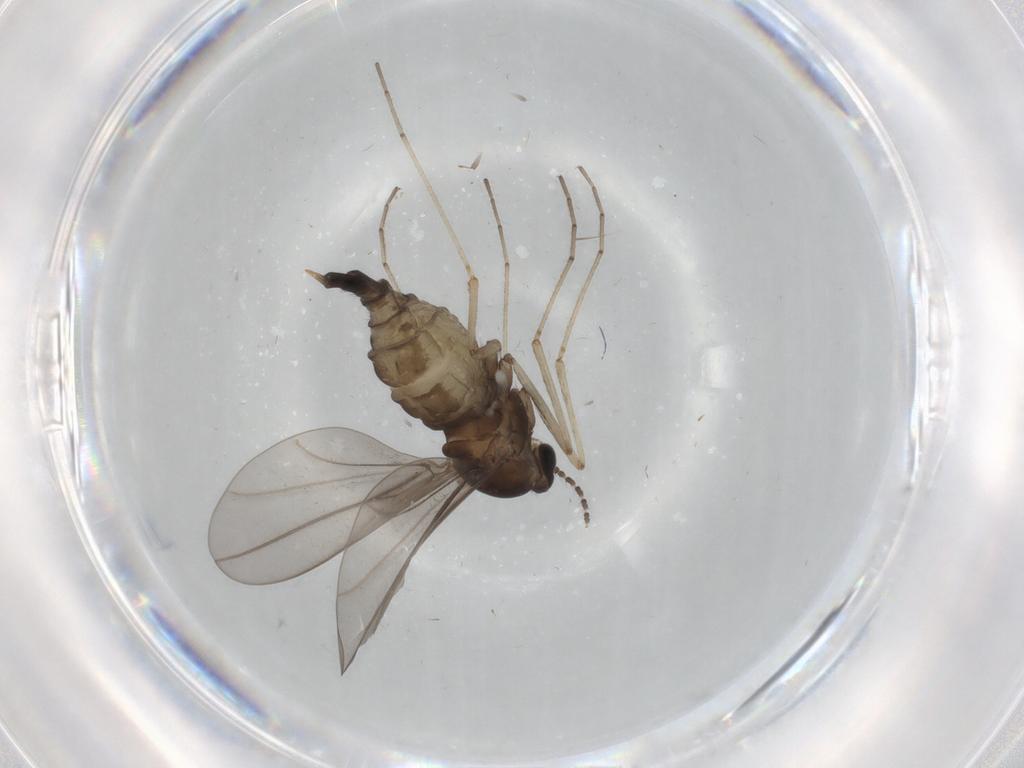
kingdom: Animalia
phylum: Arthropoda
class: Insecta
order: Diptera
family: Cecidomyiidae
